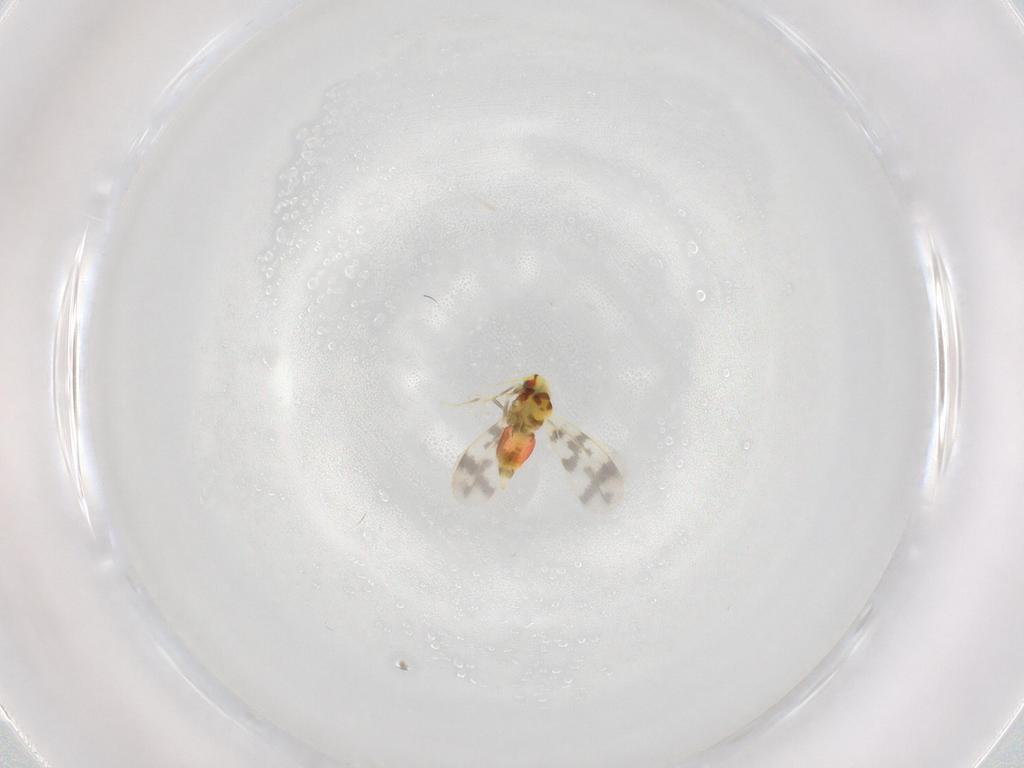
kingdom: Animalia
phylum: Arthropoda
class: Insecta
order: Hemiptera
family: Aleyrodidae
